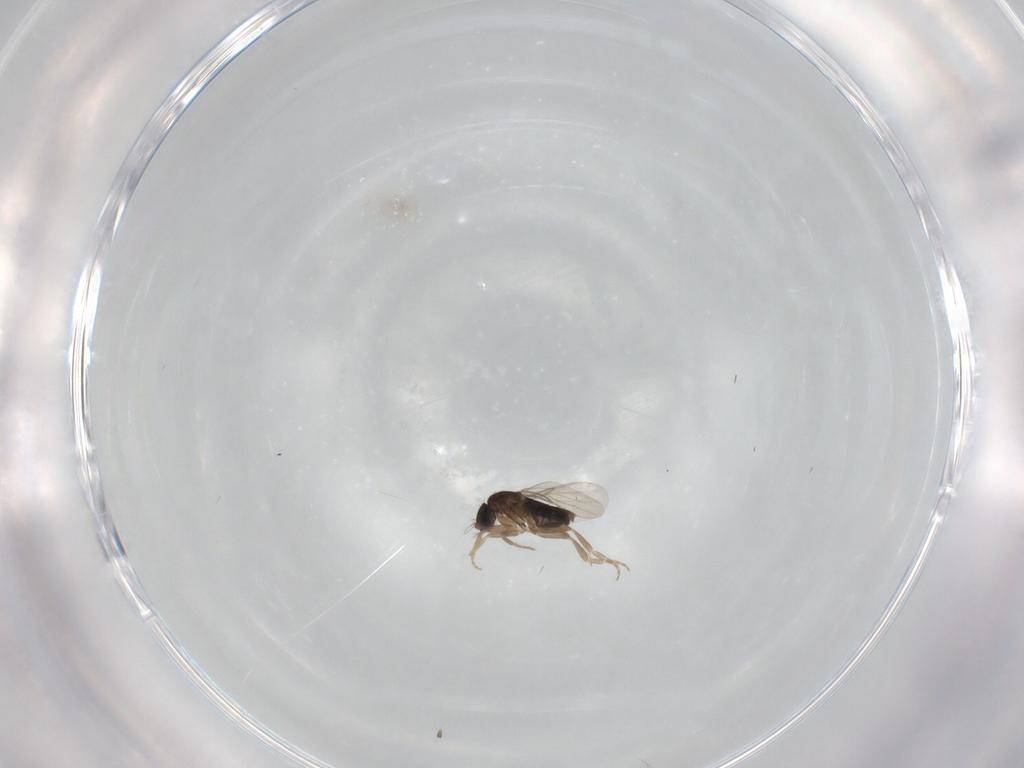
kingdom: Animalia
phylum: Arthropoda
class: Insecta
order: Diptera
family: Phoridae
